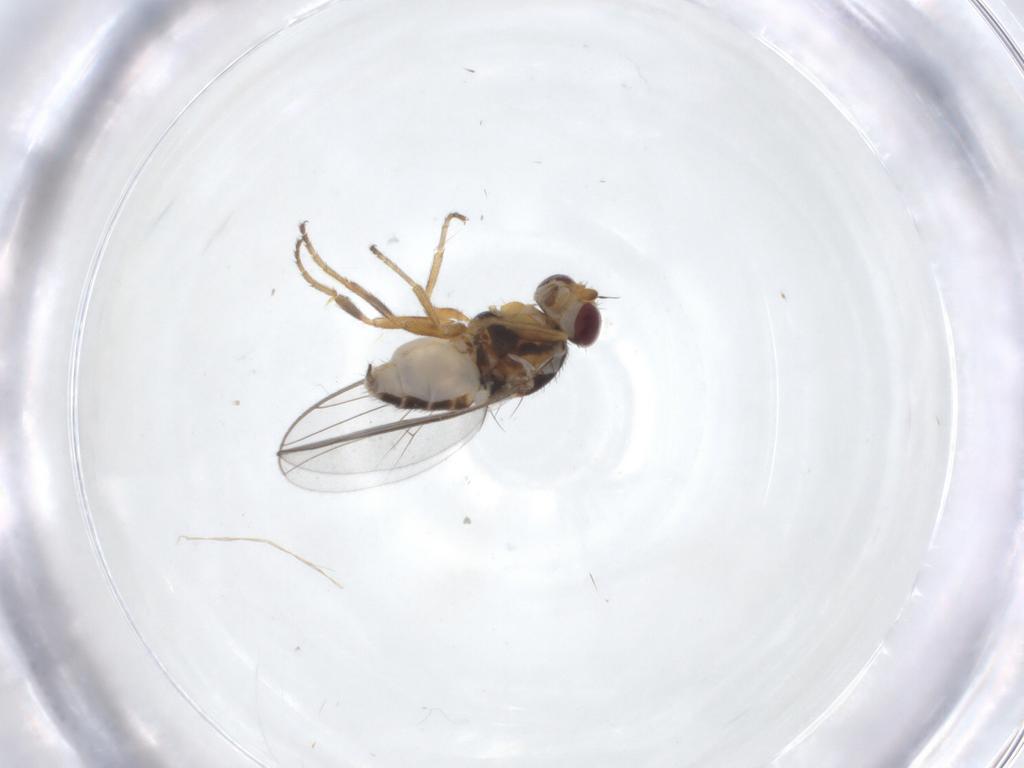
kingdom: Animalia
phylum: Arthropoda
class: Insecta
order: Diptera
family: Chloropidae
